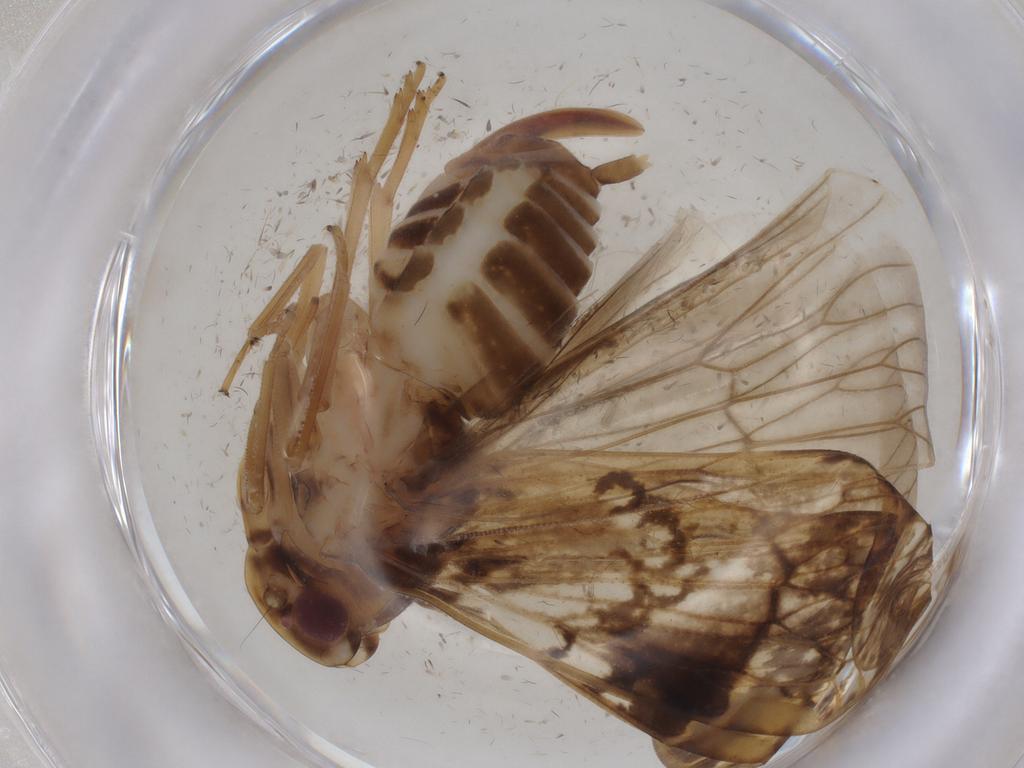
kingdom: Animalia
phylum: Arthropoda
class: Insecta
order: Hemiptera
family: Cixiidae
